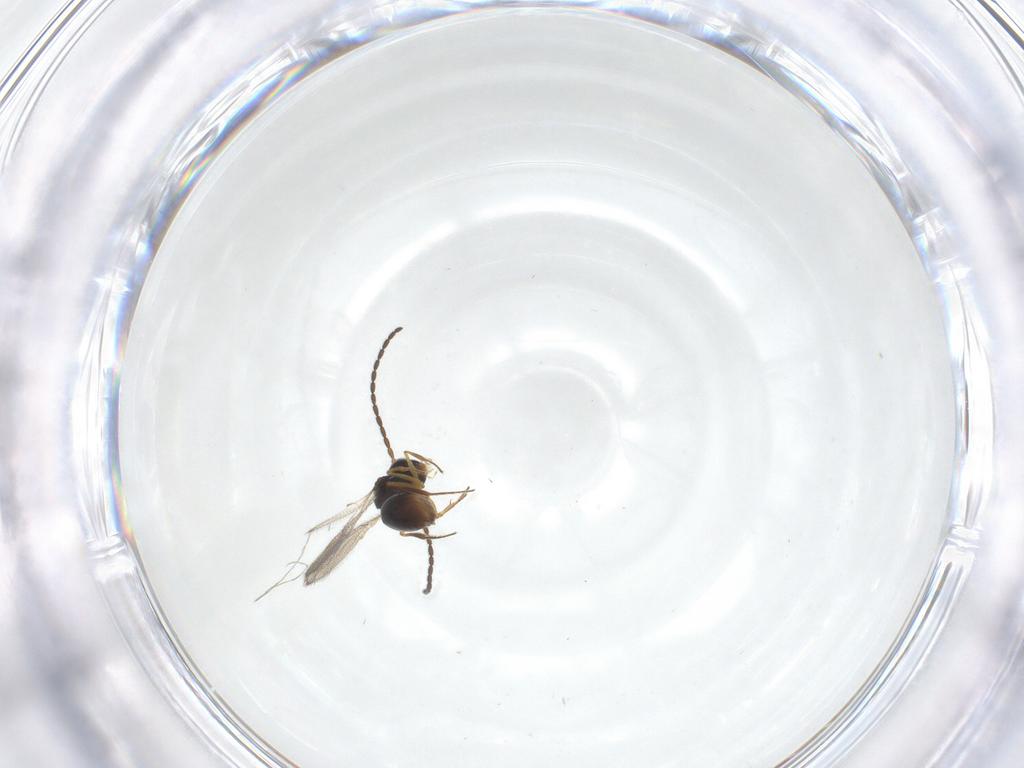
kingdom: Animalia
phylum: Arthropoda
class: Insecta
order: Hymenoptera
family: Figitidae
